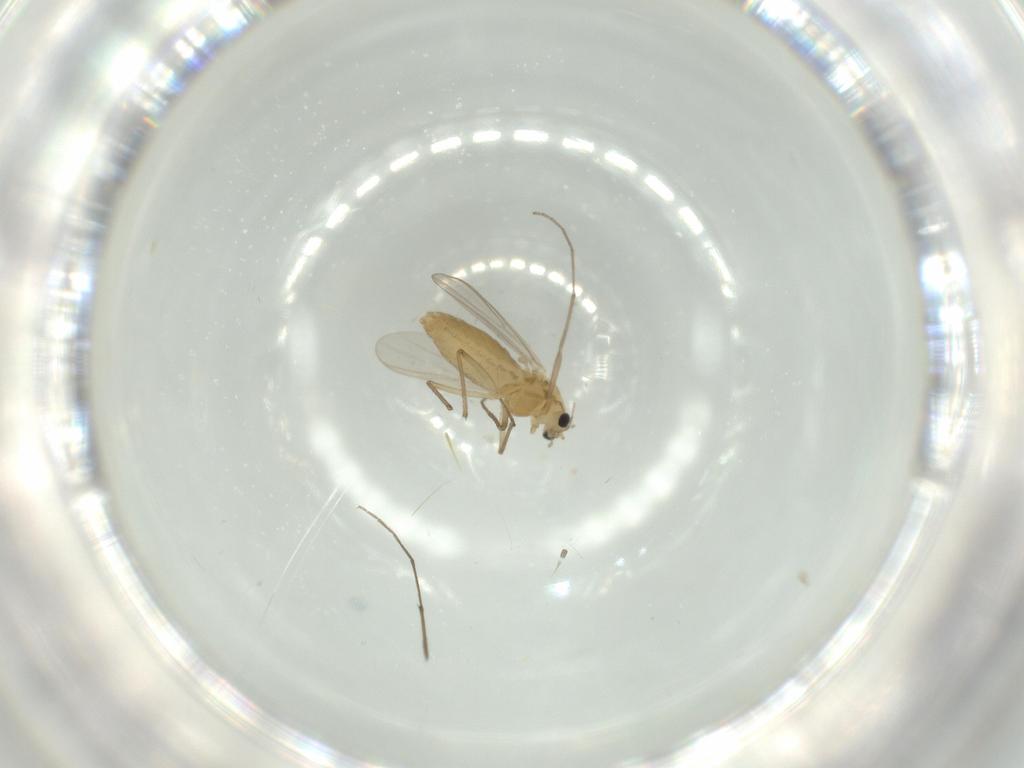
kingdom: Animalia
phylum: Arthropoda
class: Insecta
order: Diptera
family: Chironomidae
